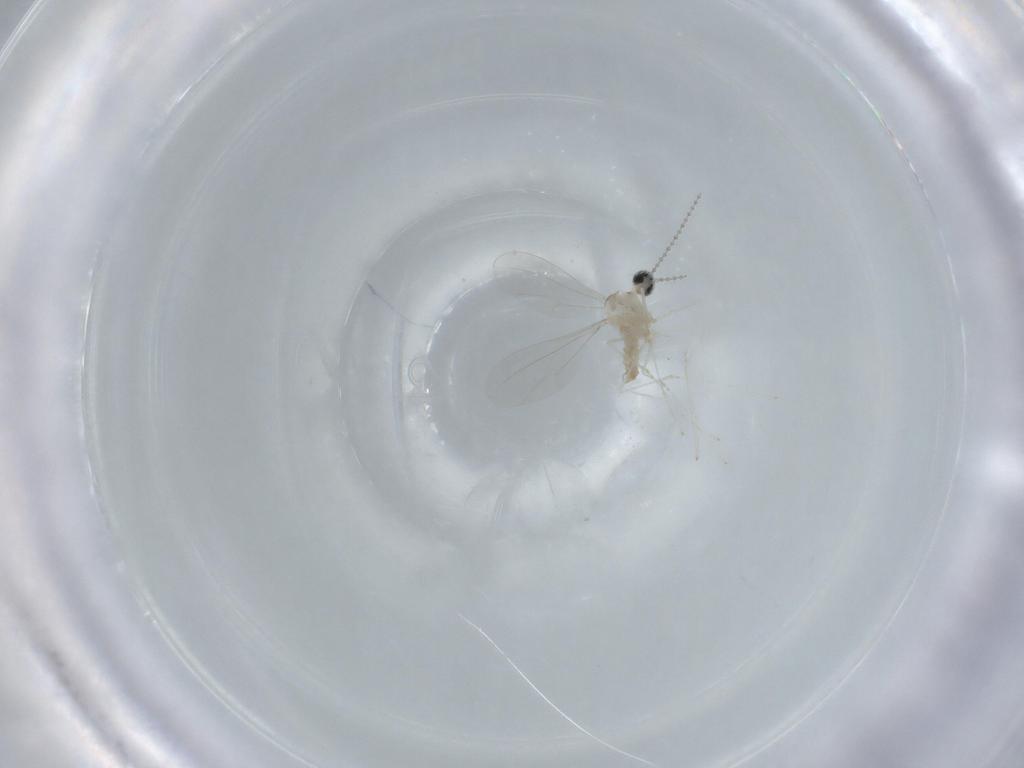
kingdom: Animalia
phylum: Arthropoda
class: Insecta
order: Diptera
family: Cecidomyiidae
